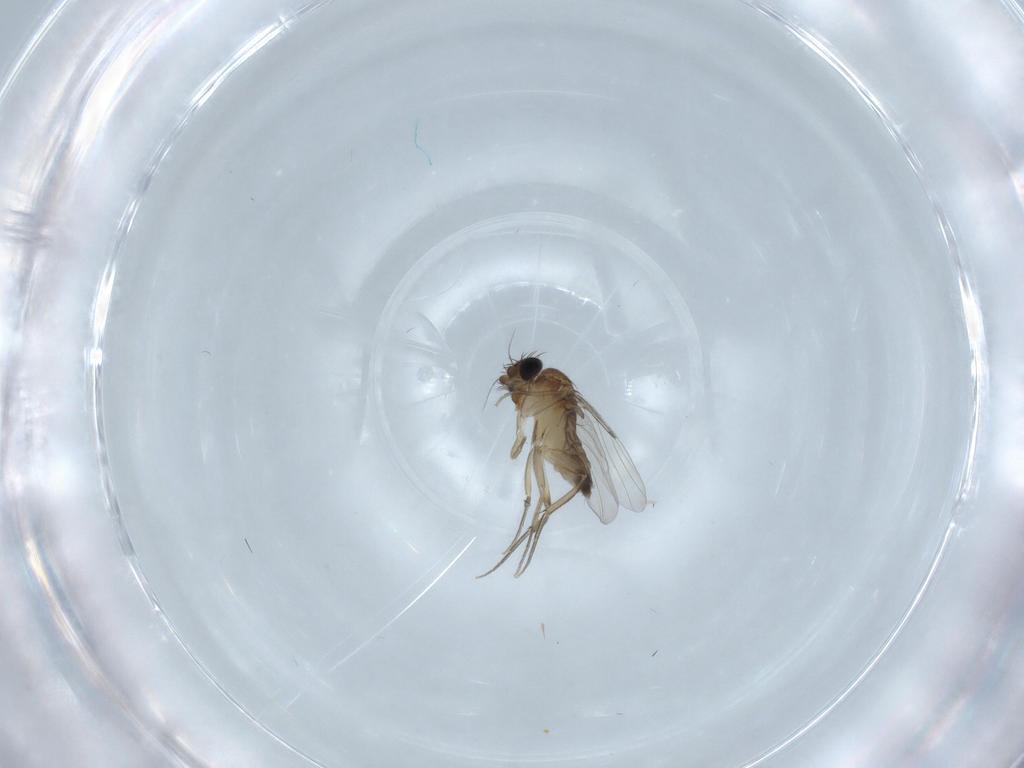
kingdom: Animalia
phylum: Arthropoda
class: Insecta
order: Diptera
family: Phoridae
